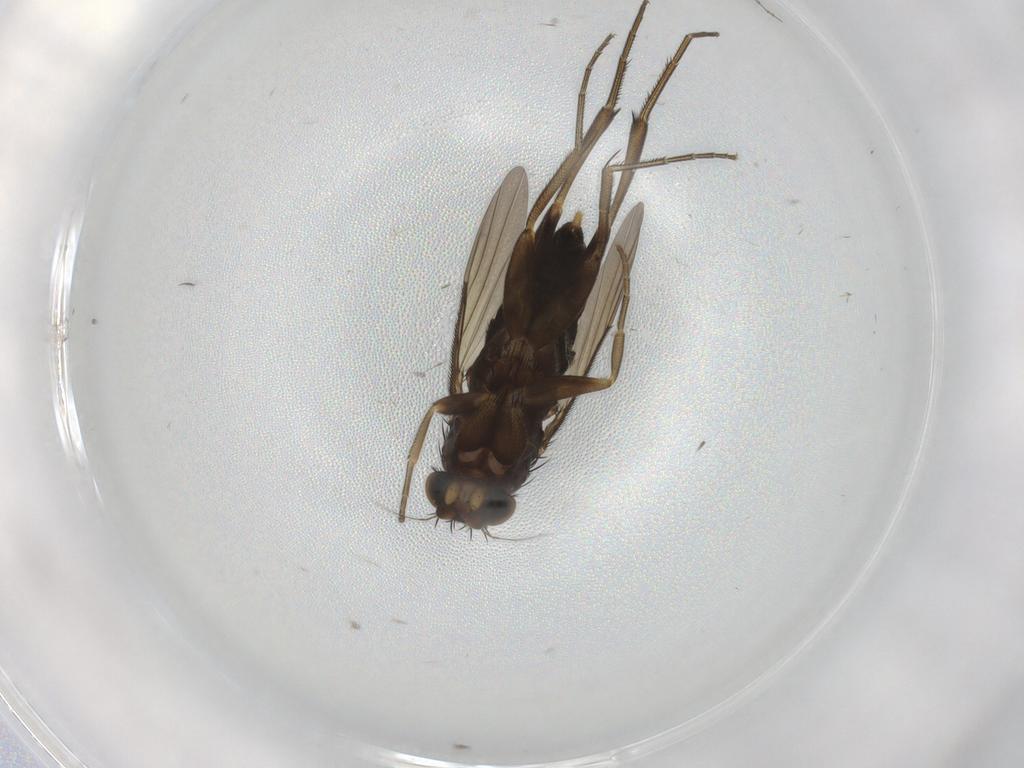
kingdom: Animalia
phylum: Arthropoda
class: Insecta
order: Diptera
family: Phoridae
